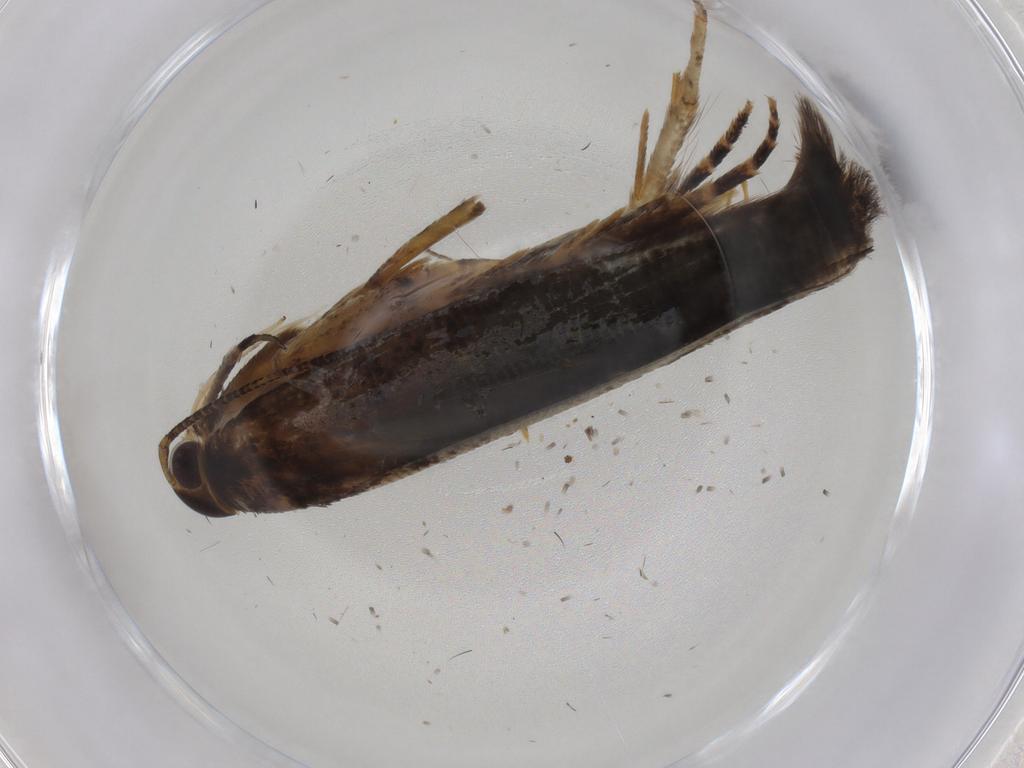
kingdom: Animalia
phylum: Arthropoda
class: Insecta
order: Lepidoptera
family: Gelechiidae
